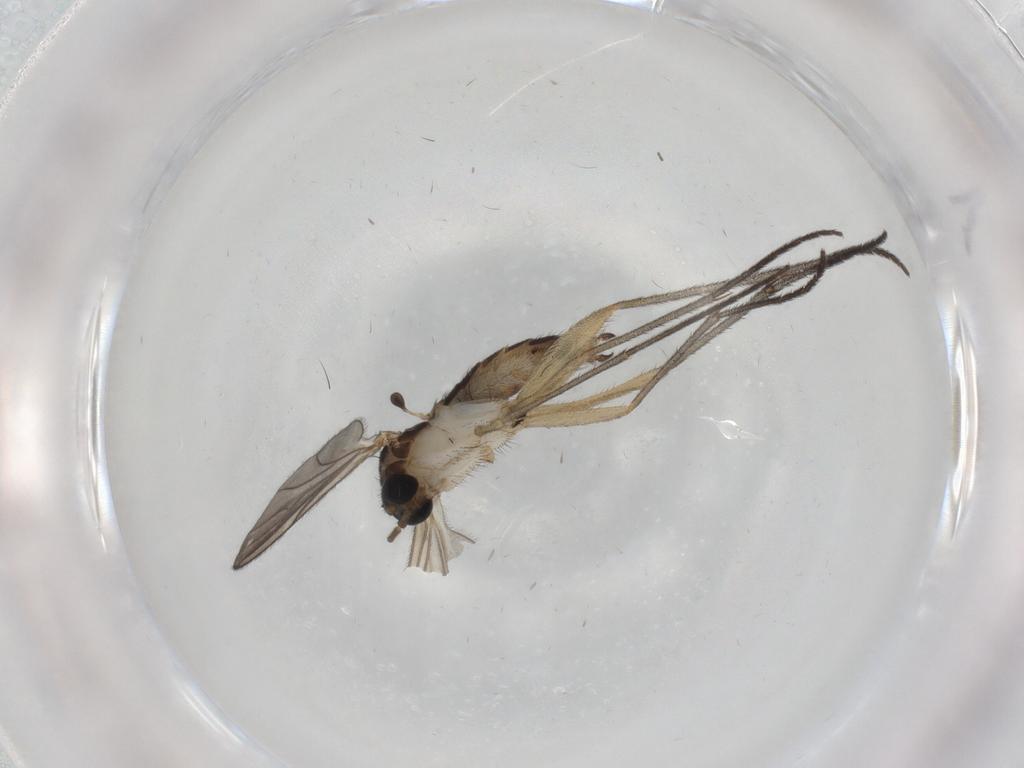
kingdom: Animalia
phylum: Arthropoda
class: Insecta
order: Diptera
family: Sciaridae
